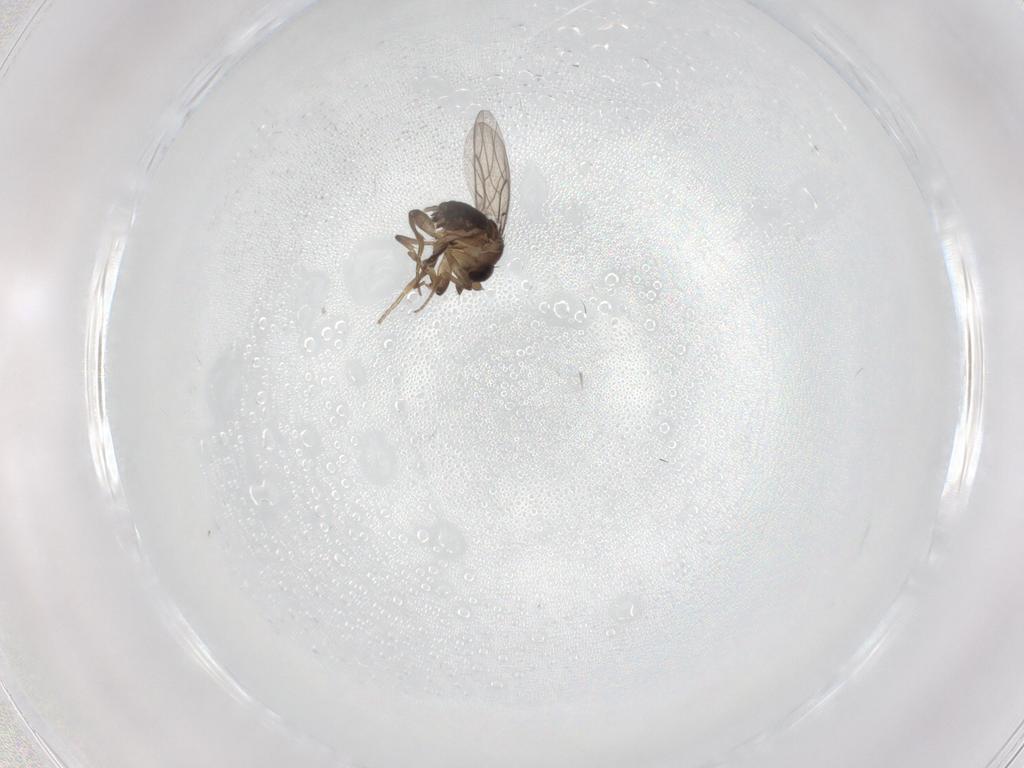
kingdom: Animalia
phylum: Arthropoda
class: Insecta
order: Diptera
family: Phoridae
